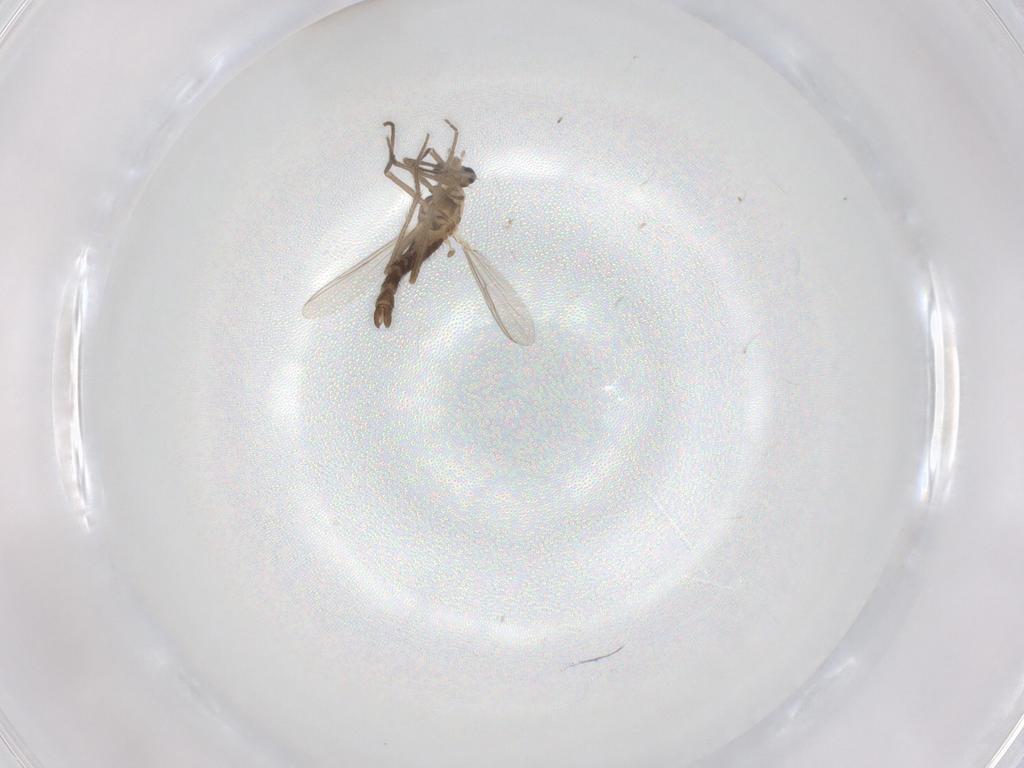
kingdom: Animalia
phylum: Arthropoda
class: Insecta
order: Diptera
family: Chironomidae
